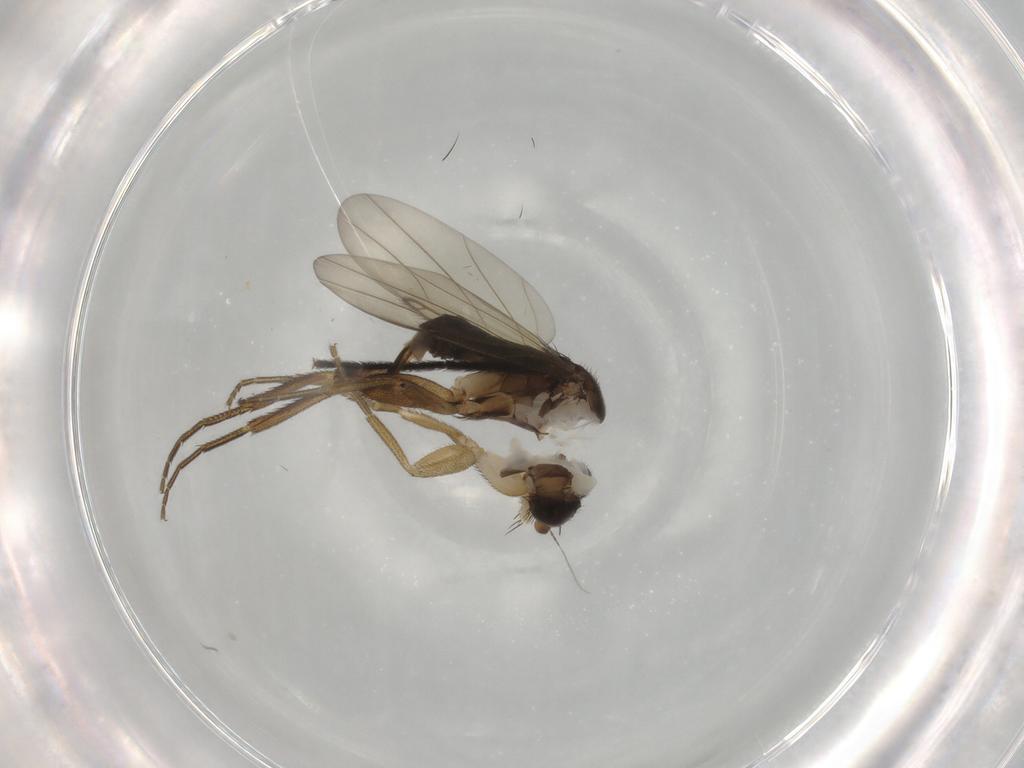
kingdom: Animalia
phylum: Arthropoda
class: Insecta
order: Diptera
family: Phoridae
